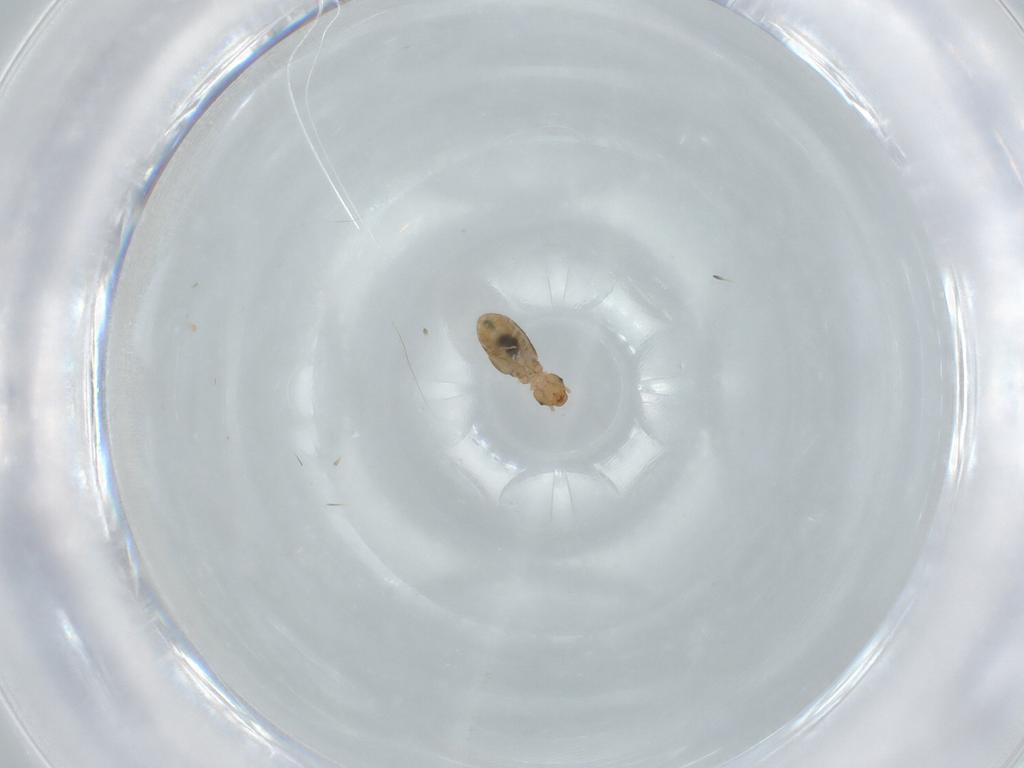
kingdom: Animalia
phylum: Arthropoda
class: Insecta
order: Psocodea
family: Liposcelididae
